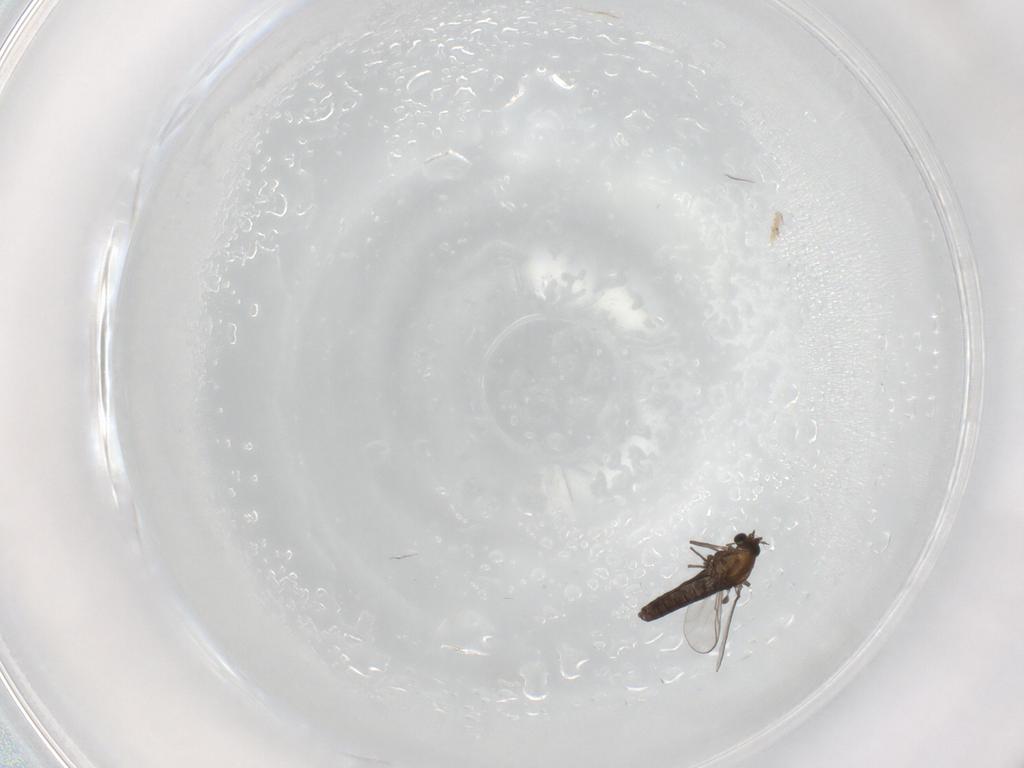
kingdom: Animalia
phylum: Arthropoda
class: Insecta
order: Diptera
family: Chironomidae
